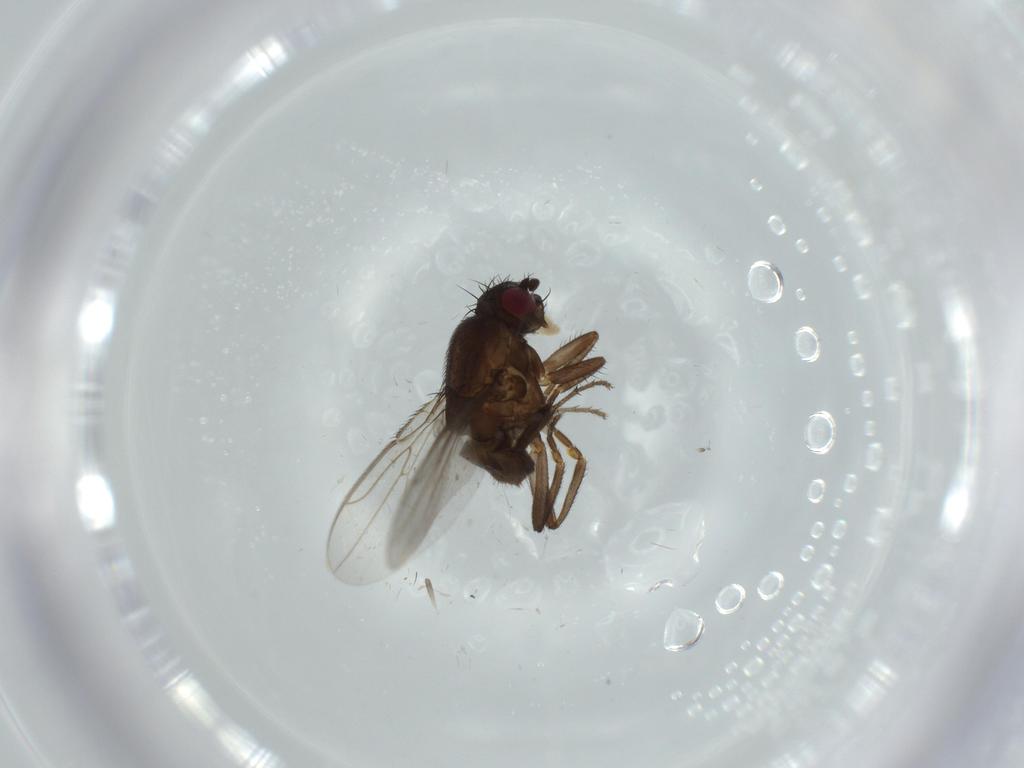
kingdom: Animalia
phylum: Arthropoda
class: Insecta
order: Diptera
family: Sphaeroceridae
